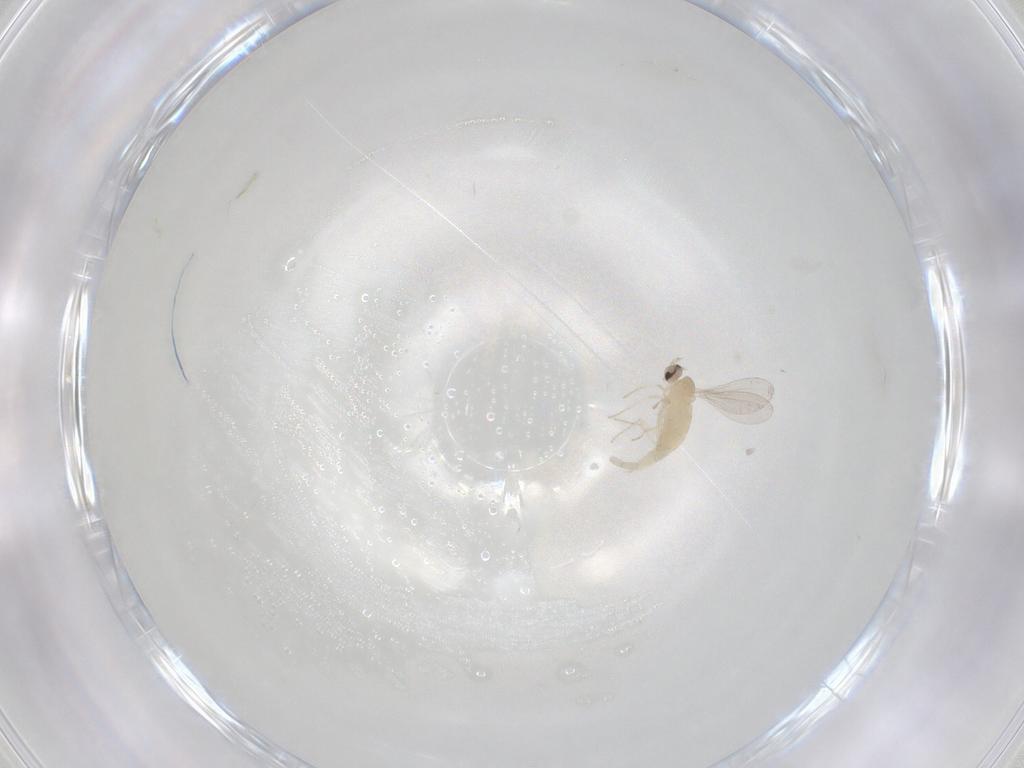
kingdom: Animalia
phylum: Arthropoda
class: Insecta
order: Diptera
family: Cecidomyiidae
